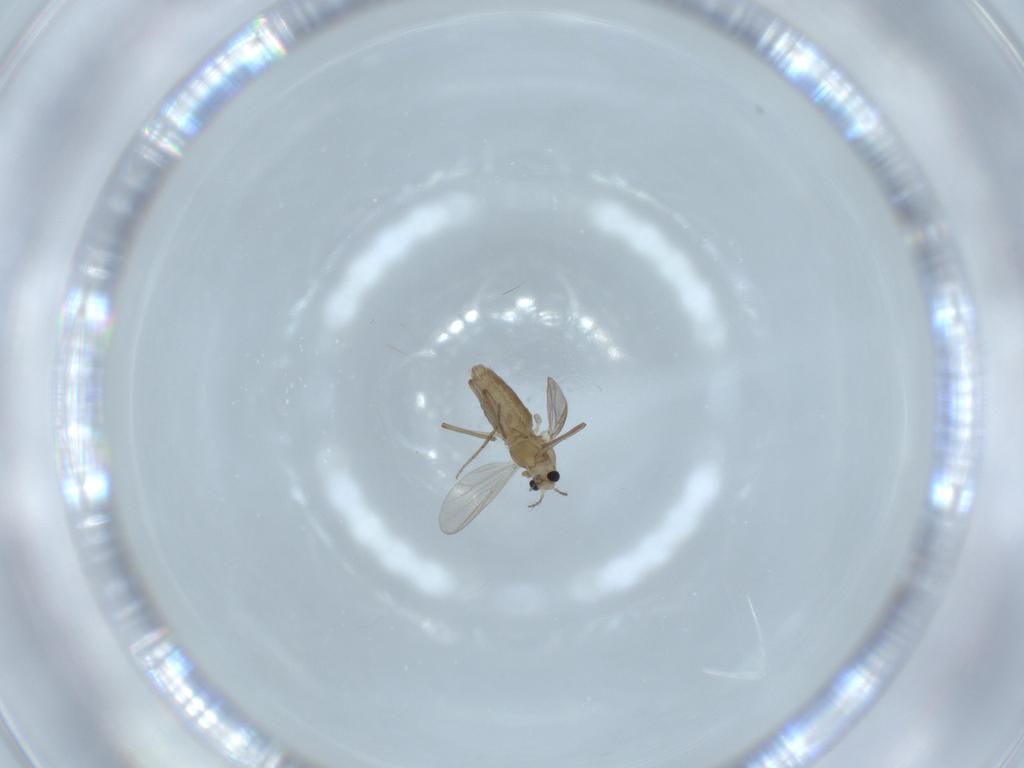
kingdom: Animalia
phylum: Arthropoda
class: Insecta
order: Diptera
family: Chironomidae
